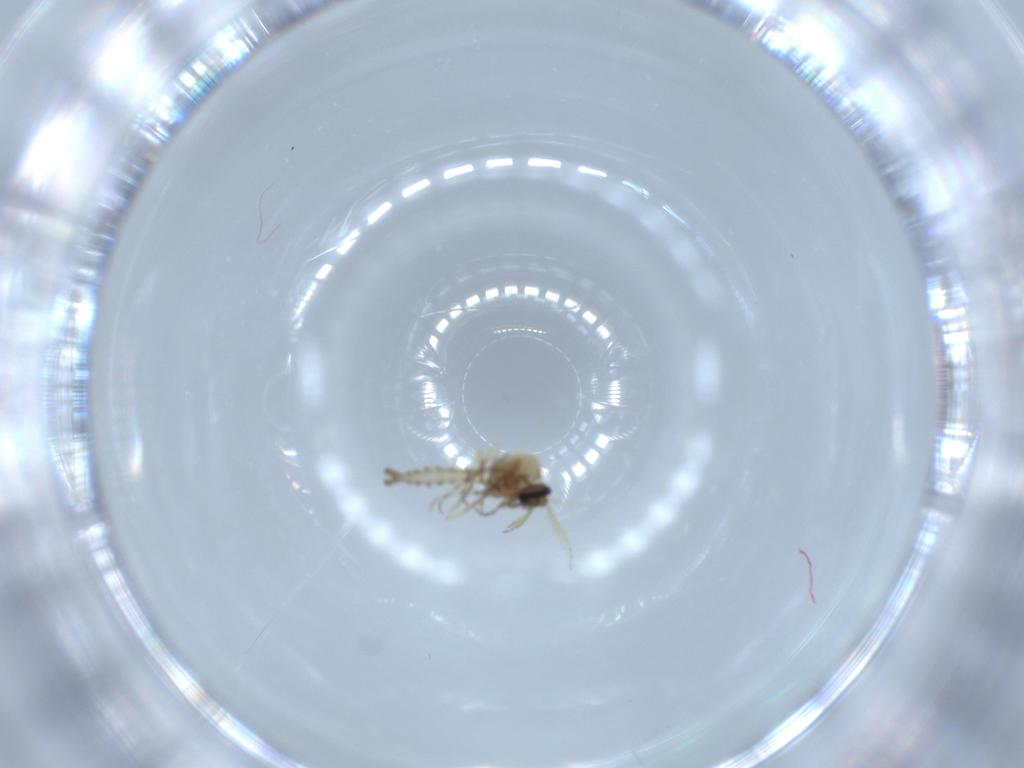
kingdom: Animalia
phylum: Arthropoda
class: Insecta
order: Diptera
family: Ceratopogonidae
